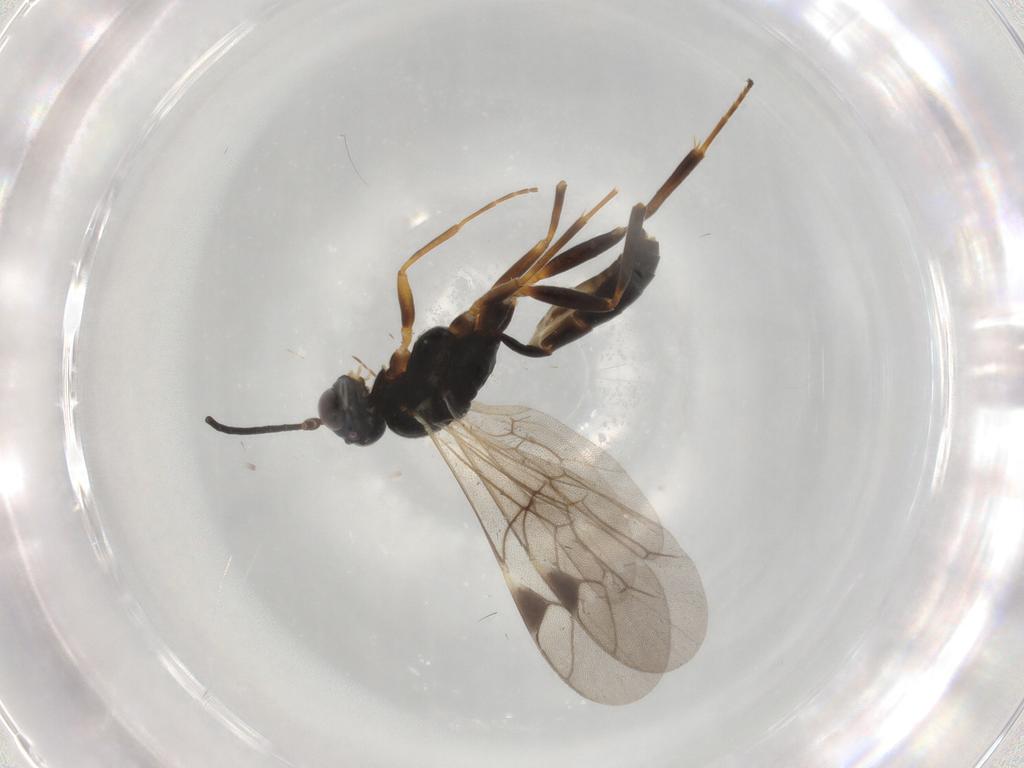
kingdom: Animalia
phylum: Arthropoda
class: Insecta
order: Hymenoptera
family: Ichneumonidae
